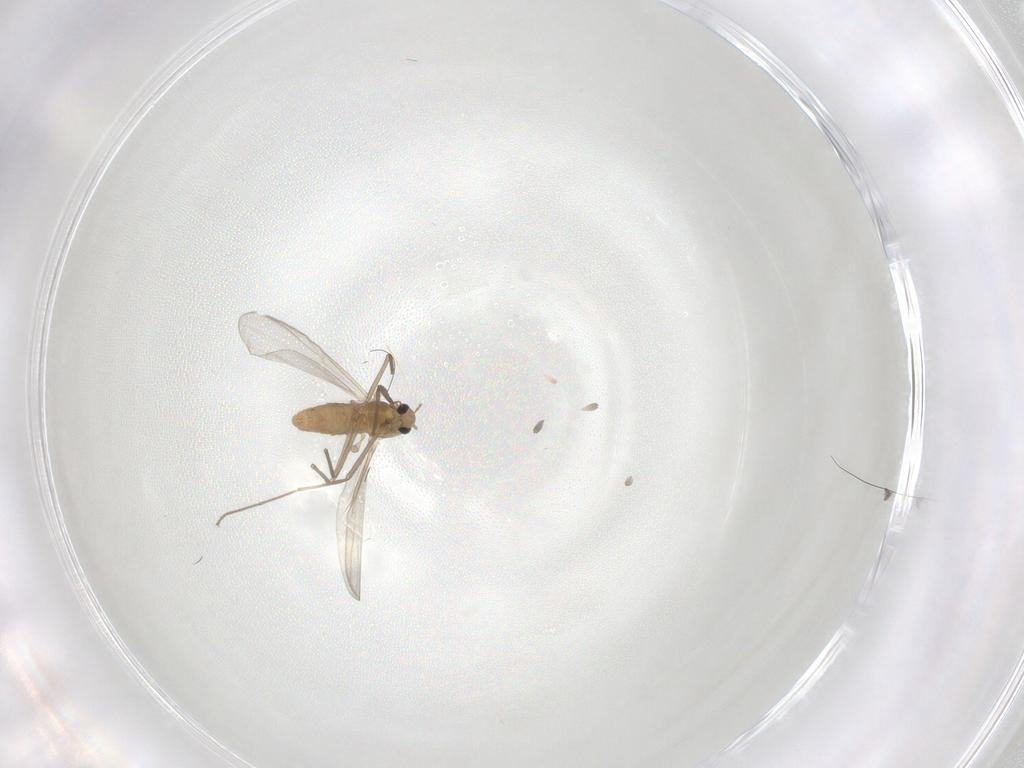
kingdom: Animalia
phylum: Arthropoda
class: Insecta
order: Diptera
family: Chironomidae
